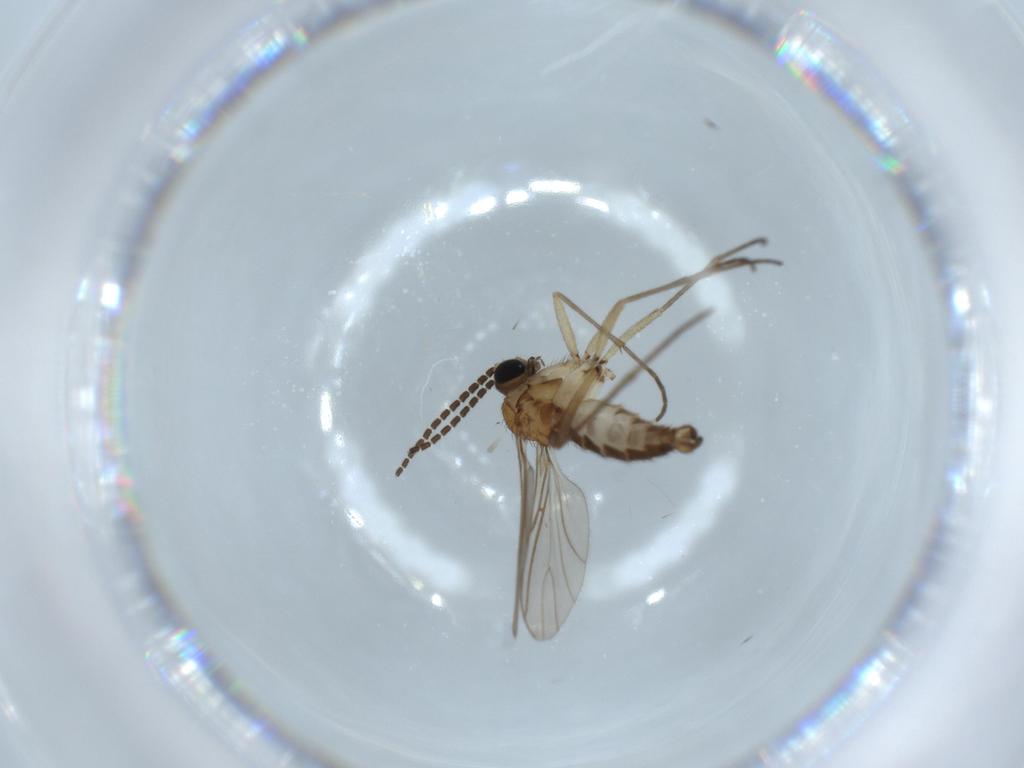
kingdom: Animalia
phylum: Arthropoda
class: Insecta
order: Diptera
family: Sciaridae
